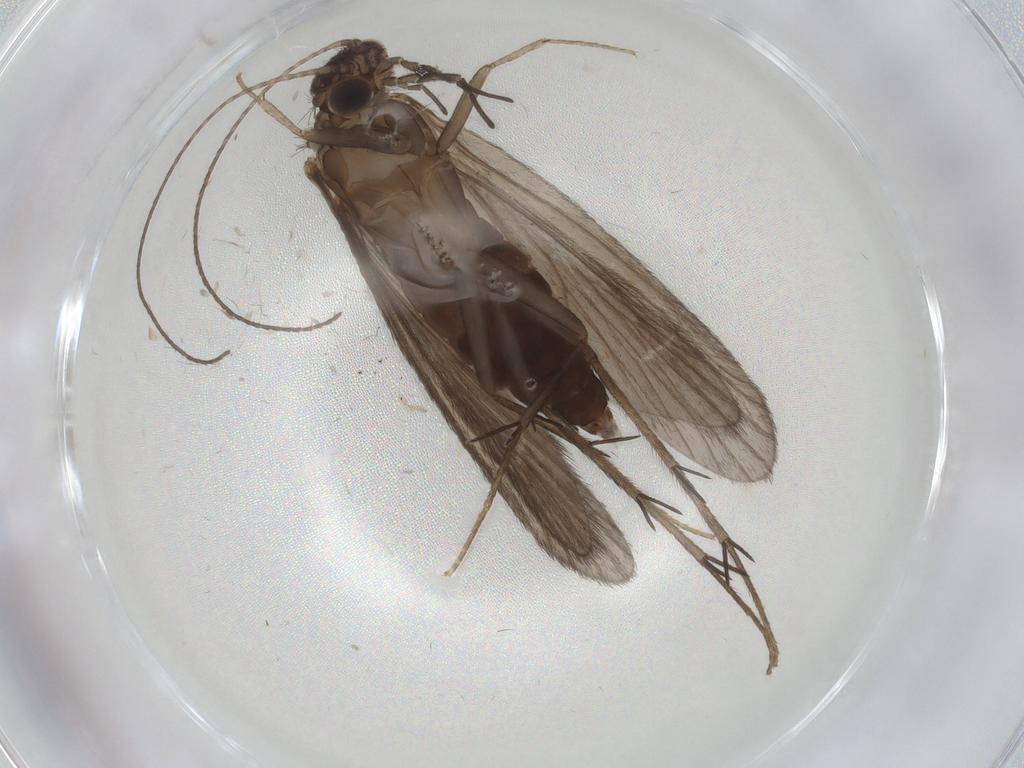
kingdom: Animalia
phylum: Arthropoda
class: Insecta
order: Trichoptera
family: Philopotamidae
